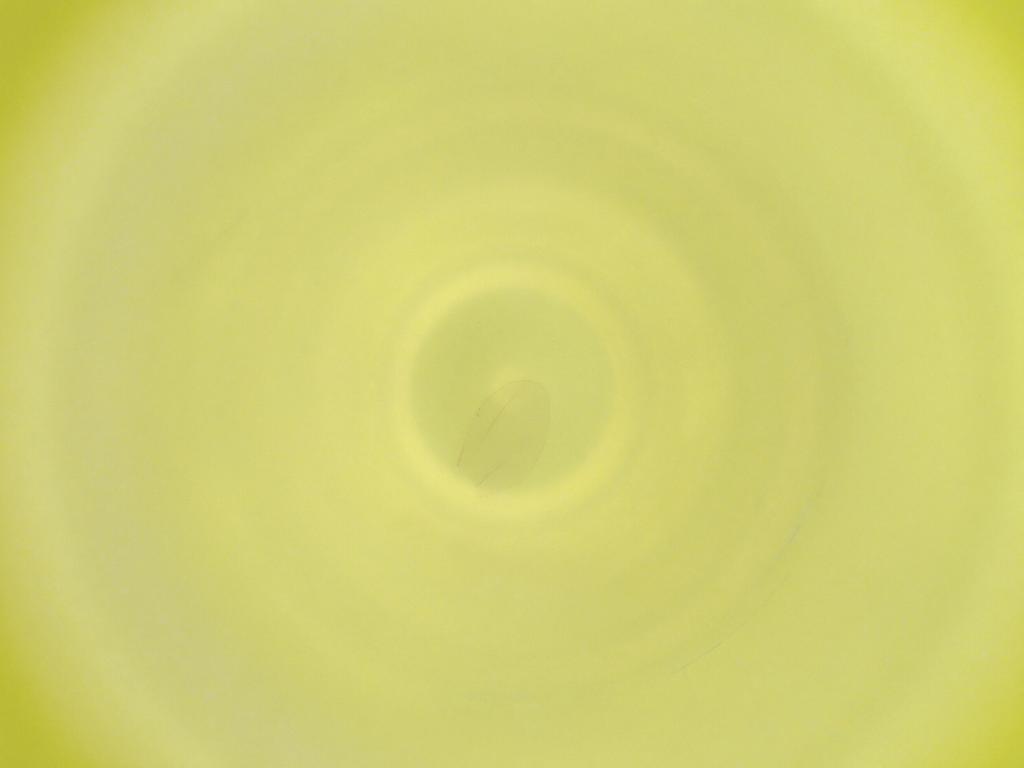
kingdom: Animalia
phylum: Arthropoda
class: Insecta
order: Diptera
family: Cecidomyiidae
